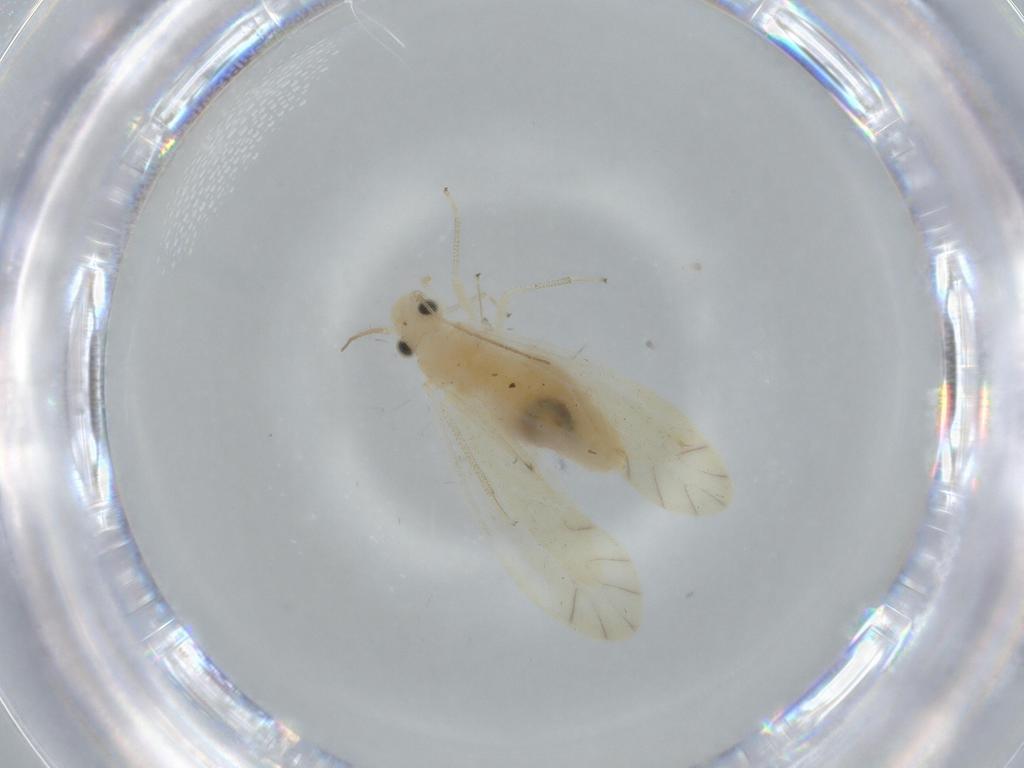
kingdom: Animalia
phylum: Arthropoda
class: Insecta
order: Psocodea
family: Caeciliusidae
